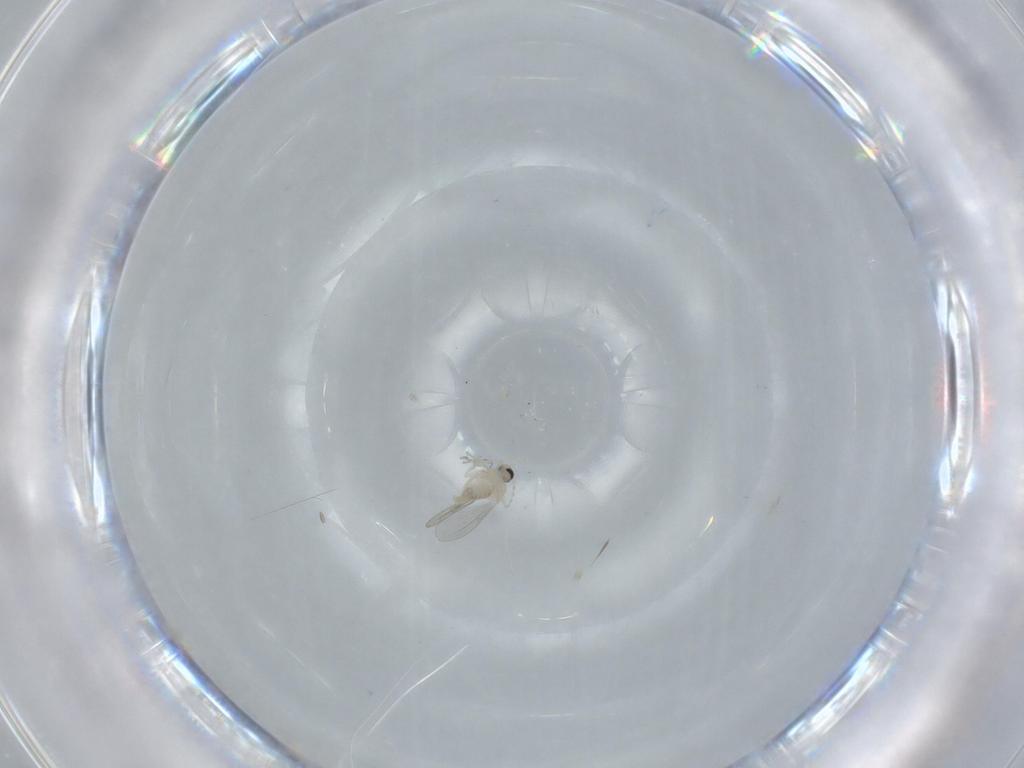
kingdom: Animalia
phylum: Arthropoda
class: Insecta
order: Diptera
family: Cecidomyiidae
